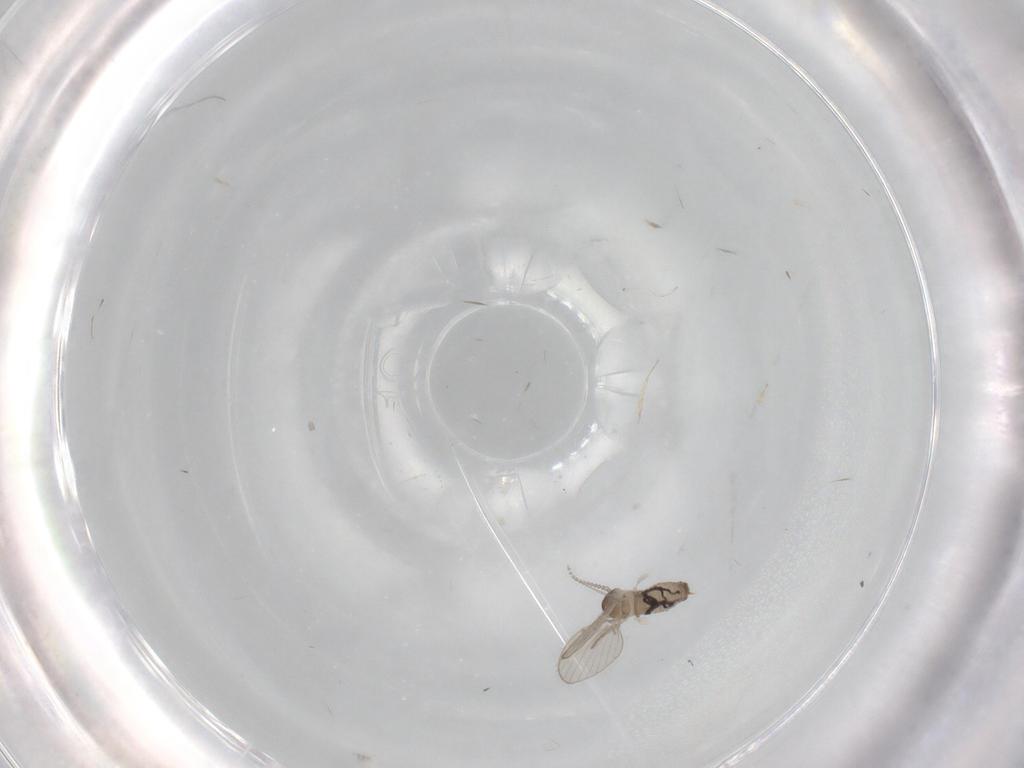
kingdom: Animalia
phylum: Arthropoda
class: Insecta
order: Diptera
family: Psychodidae
